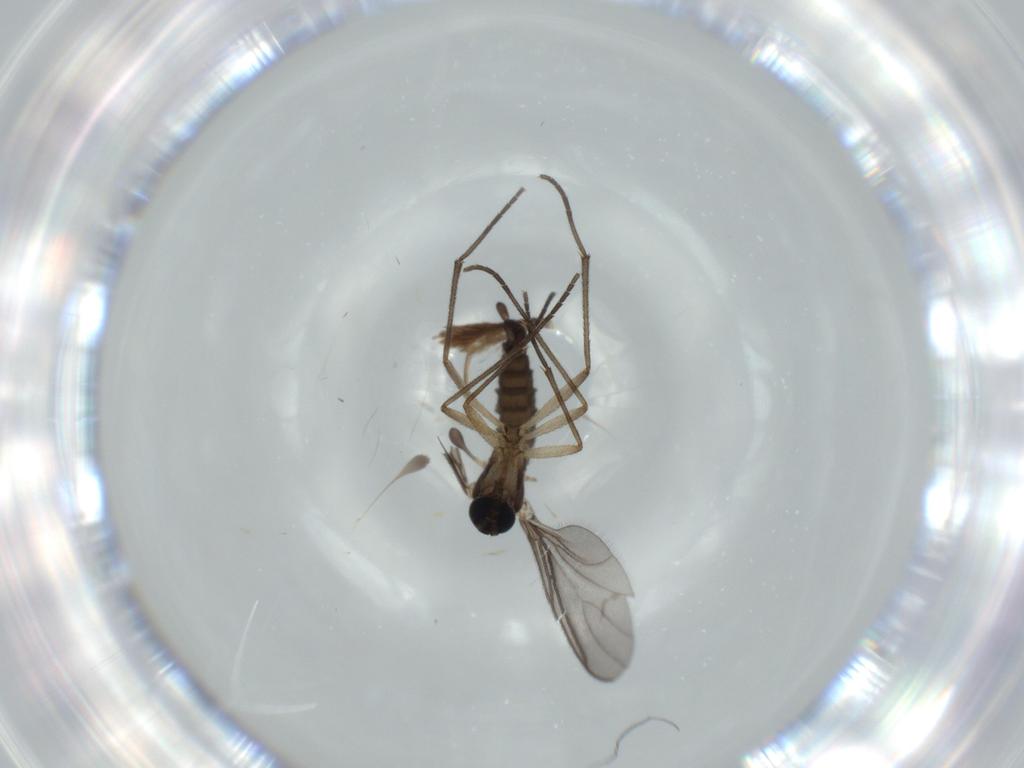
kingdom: Animalia
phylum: Arthropoda
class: Insecta
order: Diptera
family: Sciaridae
